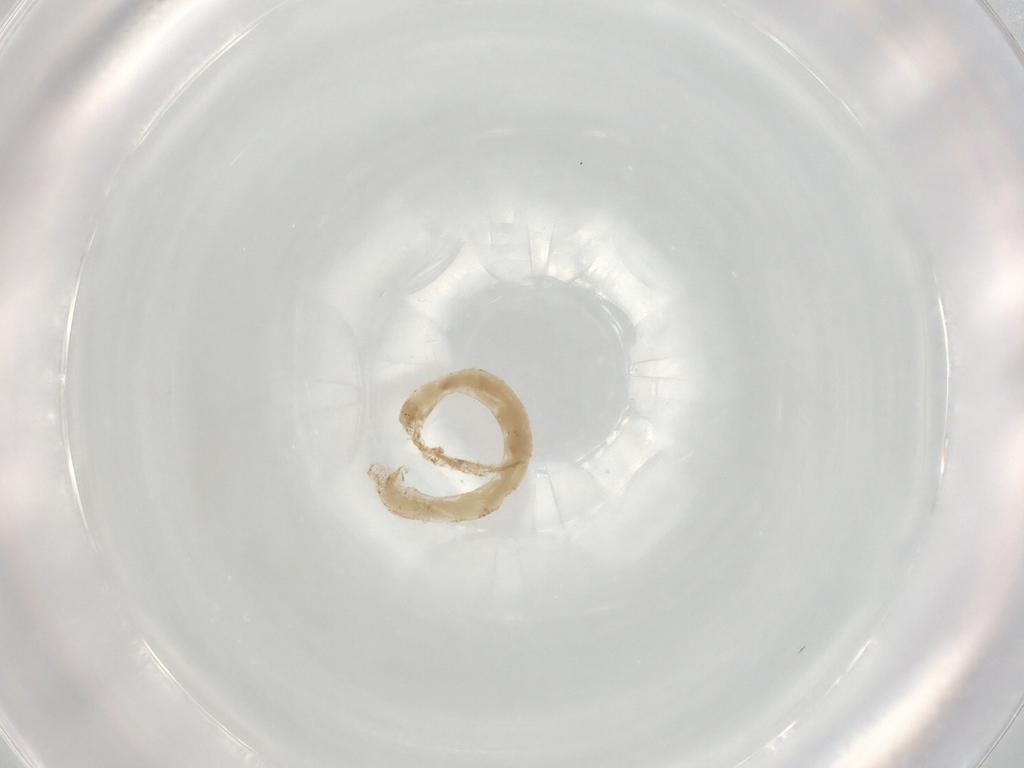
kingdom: Animalia
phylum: Arthropoda
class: Insecta
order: Diptera
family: Chironomidae
